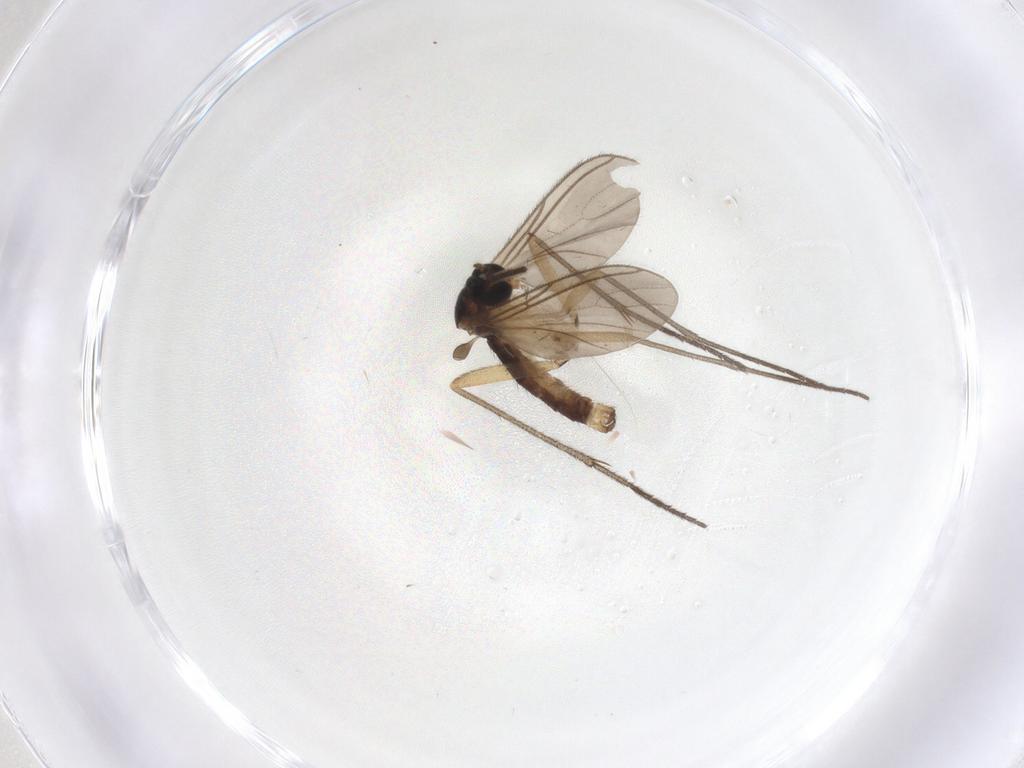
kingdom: Animalia
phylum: Arthropoda
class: Insecta
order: Diptera
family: Sciaridae
